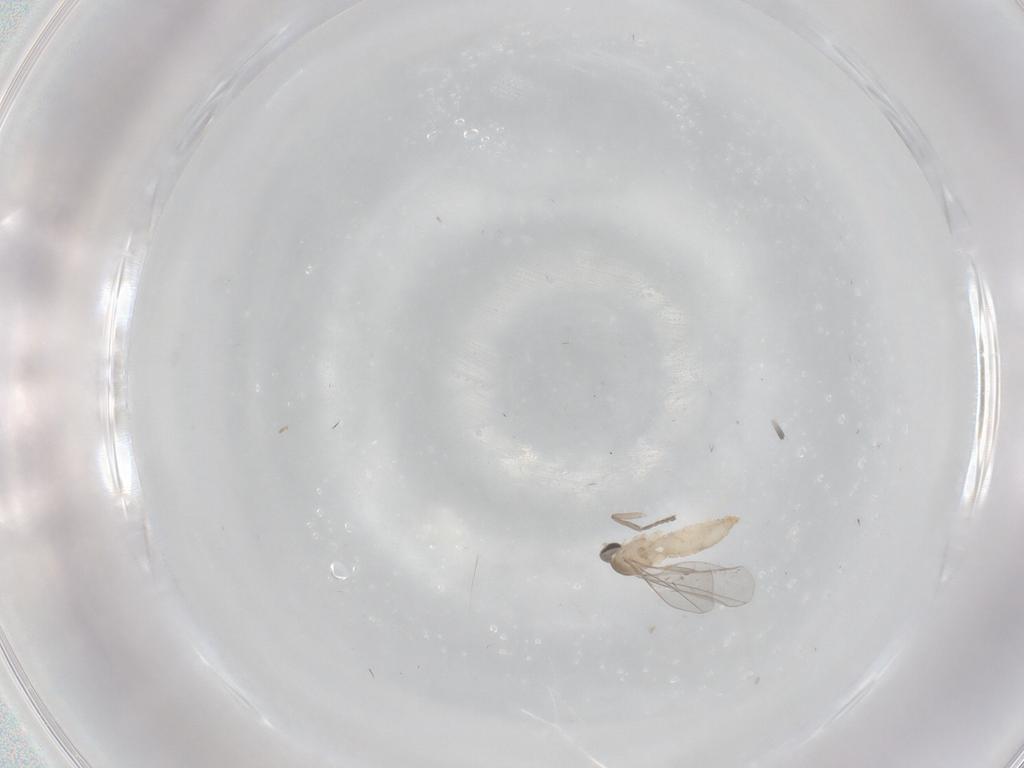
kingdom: Animalia
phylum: Arthropoda
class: Insecta
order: Diptera
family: Cecidomyiidae
